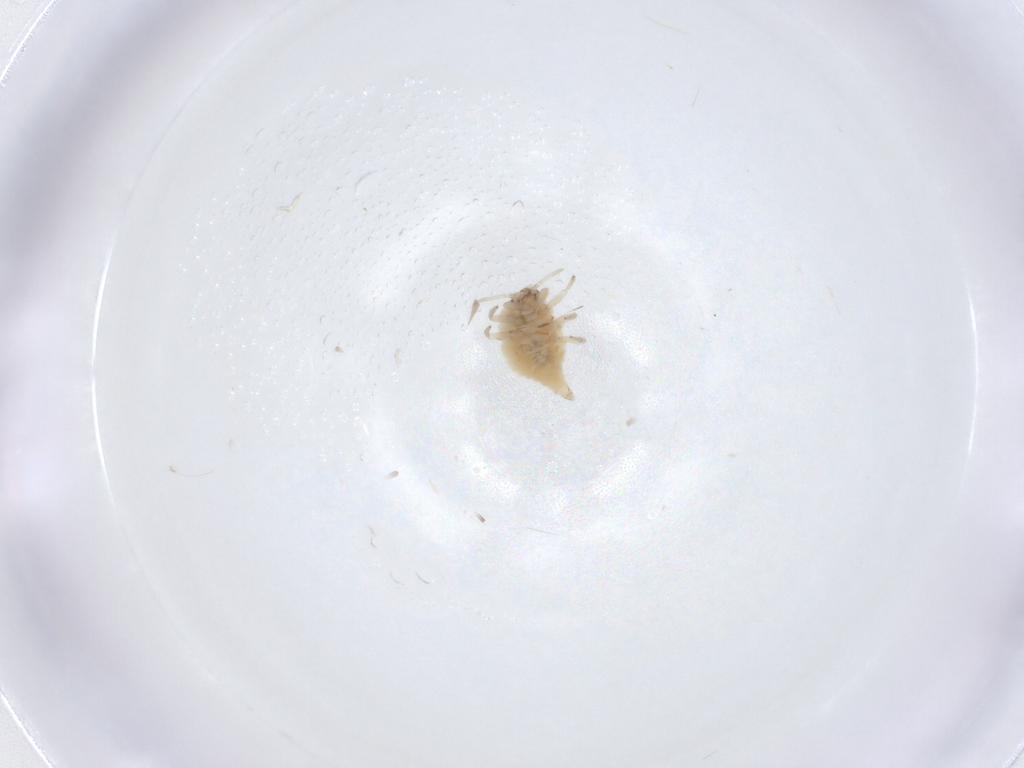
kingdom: Animalia
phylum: Arthropoda
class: Insecta
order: Neuroptera
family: Coniopterygidae
